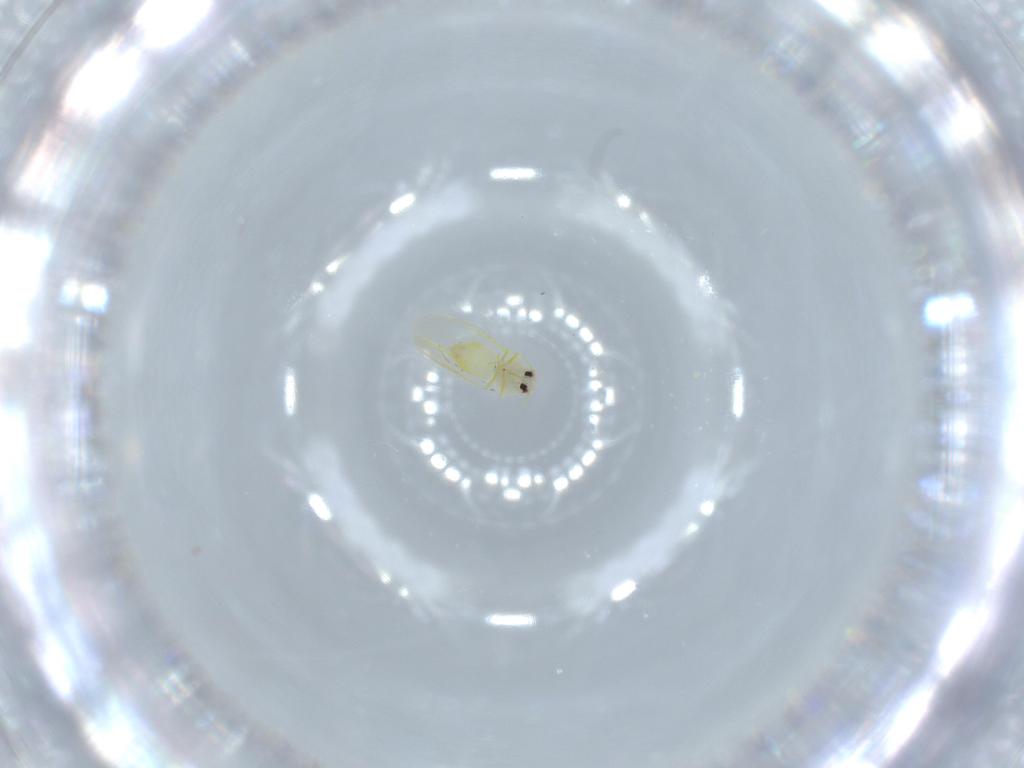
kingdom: Animalia
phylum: Arthropoda
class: Insecta
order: Hemiptera
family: Aleyrodidae
